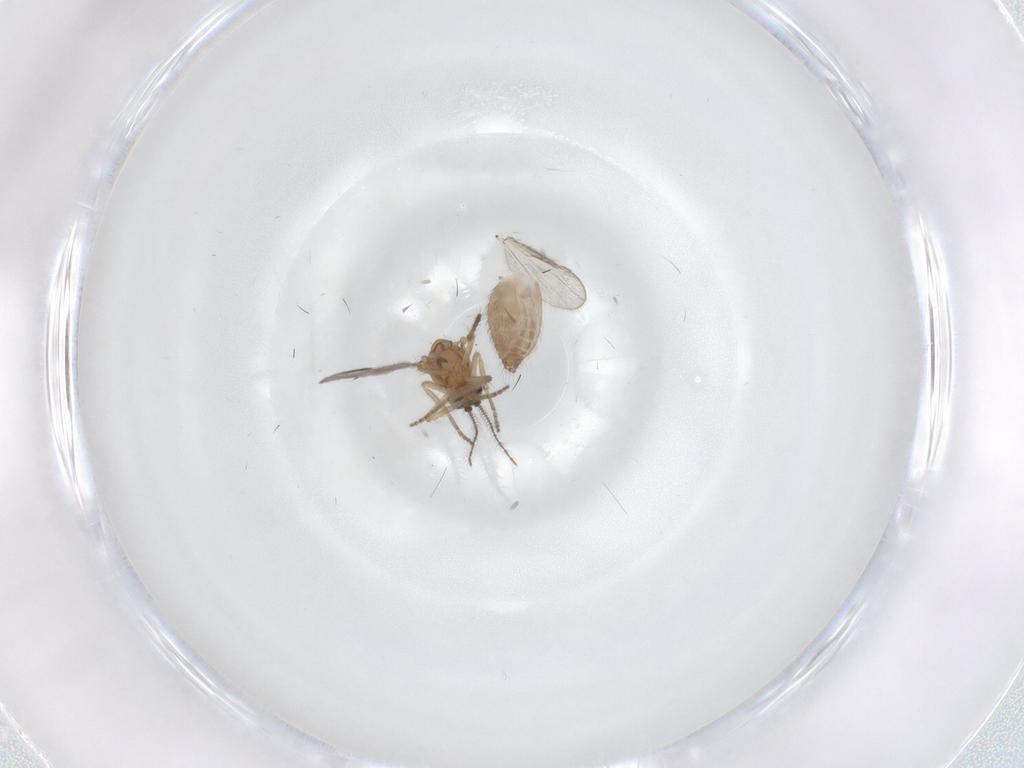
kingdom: Animalia
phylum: Arthropoda
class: Insecta
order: Diptera
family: Ceratopogonidae
